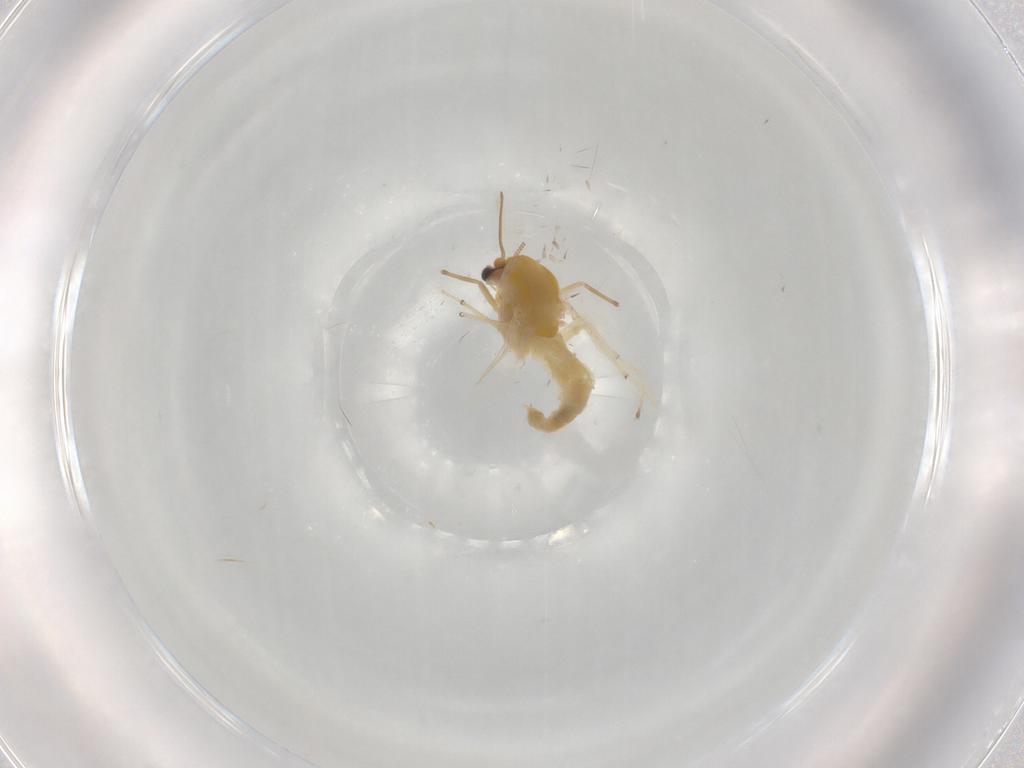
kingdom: Animalia
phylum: Arthropoda
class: Insecta
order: Diptera
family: Chironomidae
